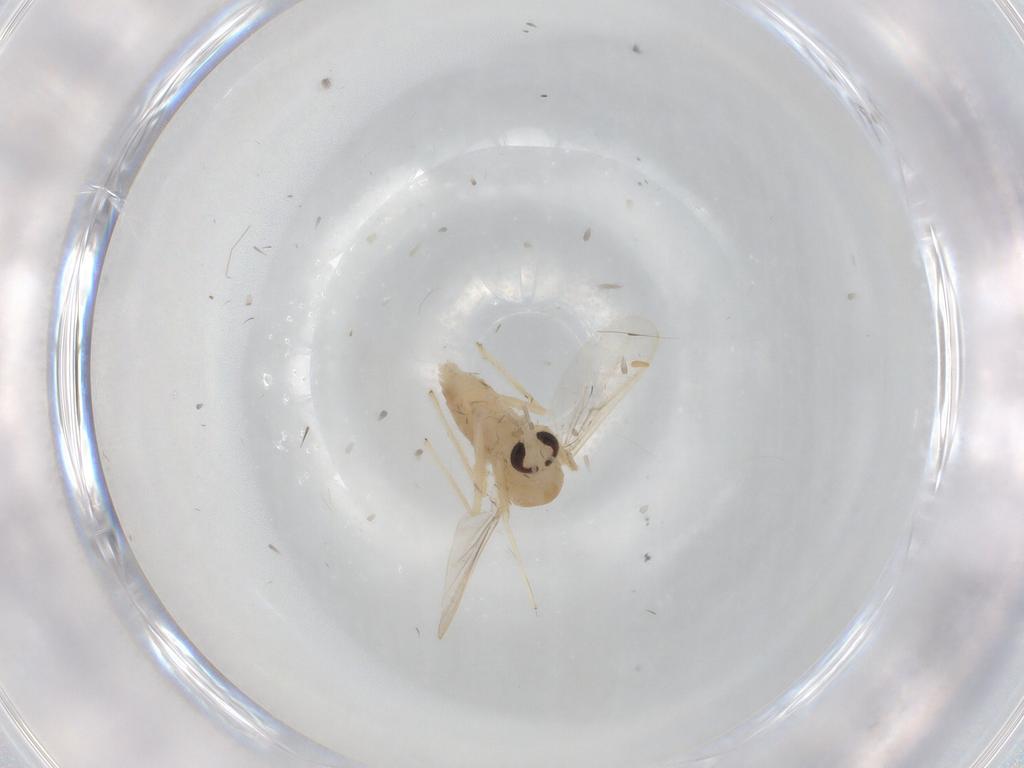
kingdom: Animalia
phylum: Arthropoda
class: Insecta
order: Diptera
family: Chironomidae
